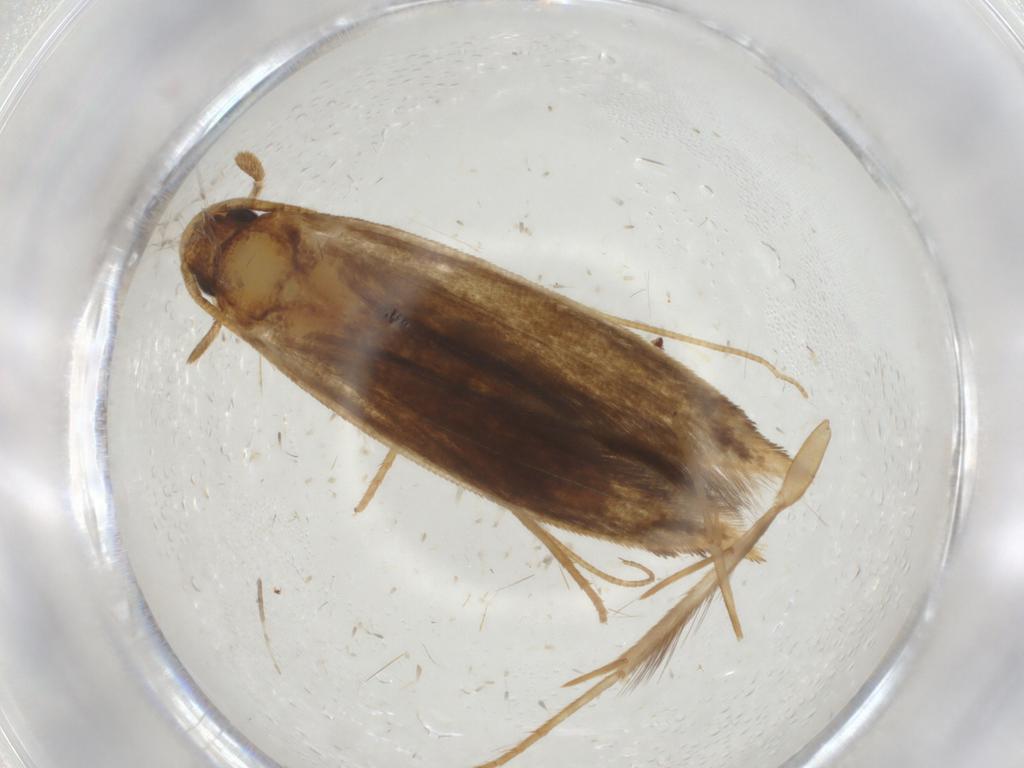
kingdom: Animalia
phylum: Arthropoda
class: Insecta
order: Lepidoptera
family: Tineidae
